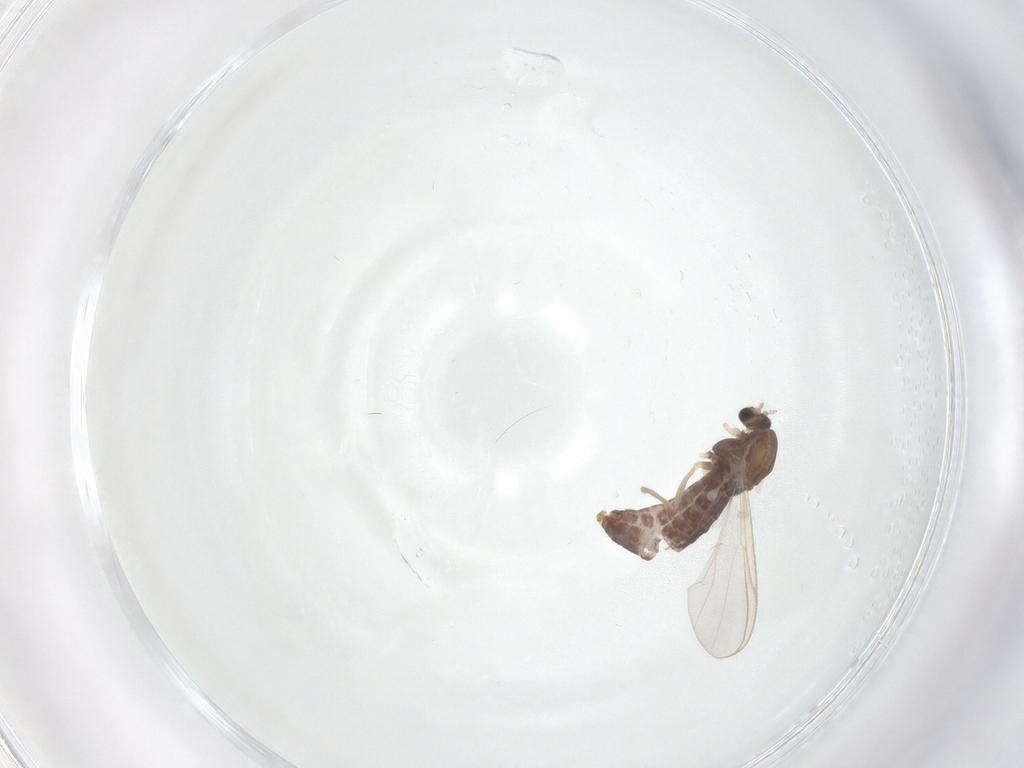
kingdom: Animalia
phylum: Arthropoda
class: Insecta
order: Diptera
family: Chironomidae
